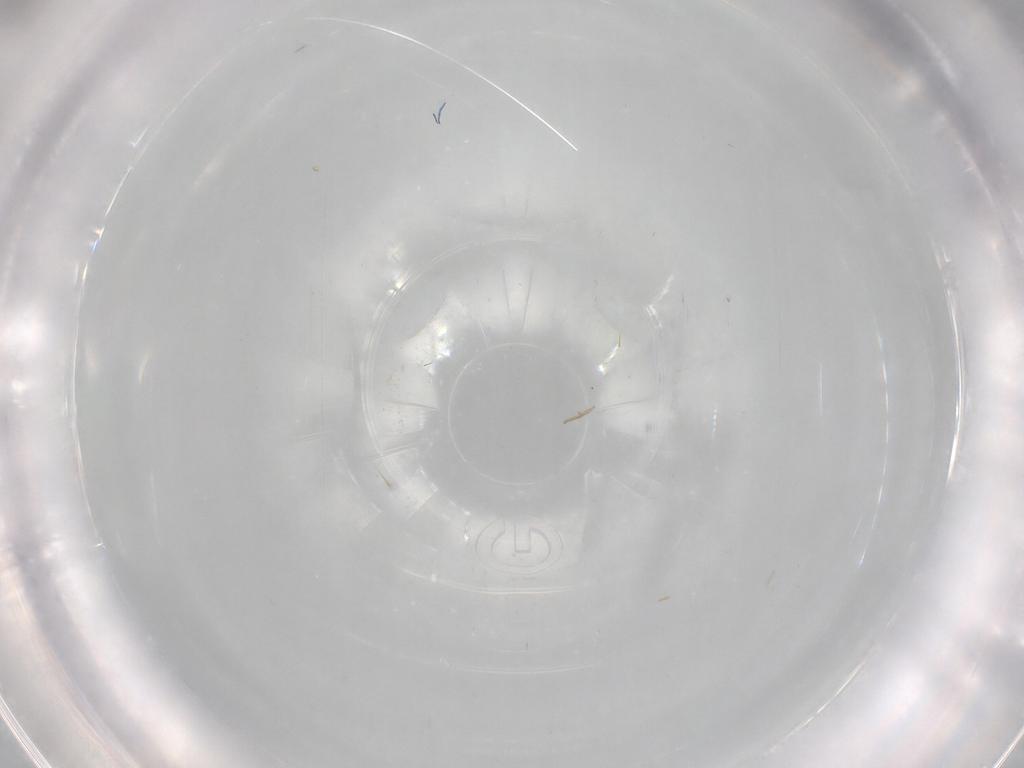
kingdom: Animalia
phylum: Arthropoda
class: Insecta
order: Hemiptera
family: Aleyrodidae
